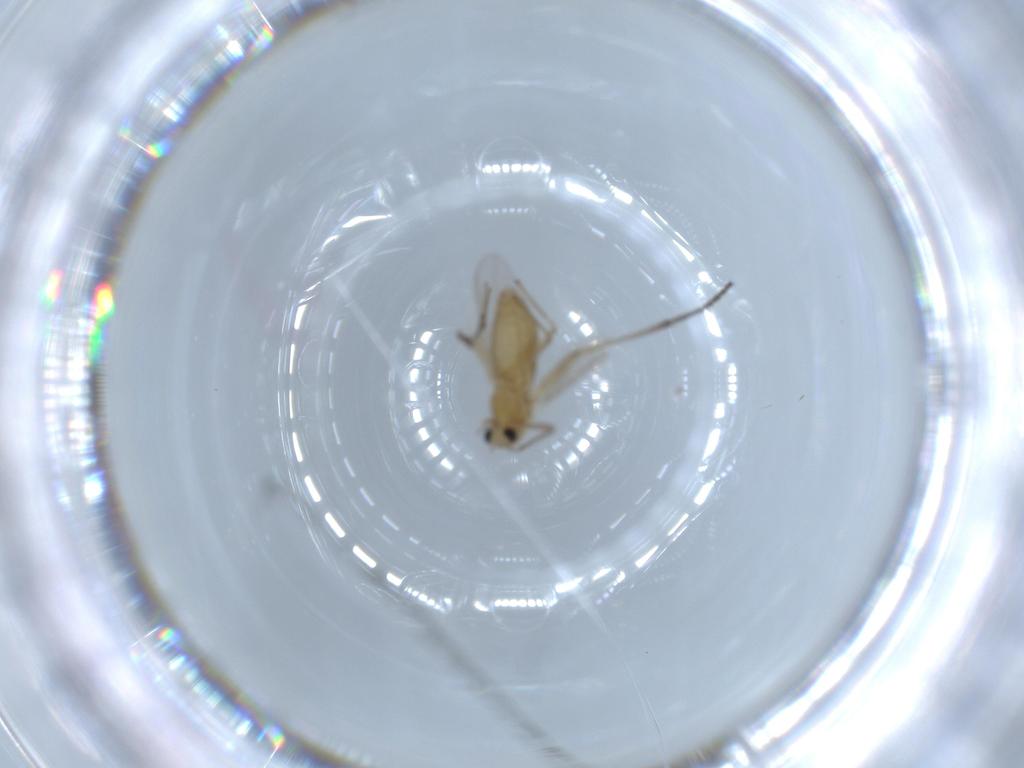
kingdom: Animalia
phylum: Arthropoda
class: Insecta
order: Diptera
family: Chironomidae
